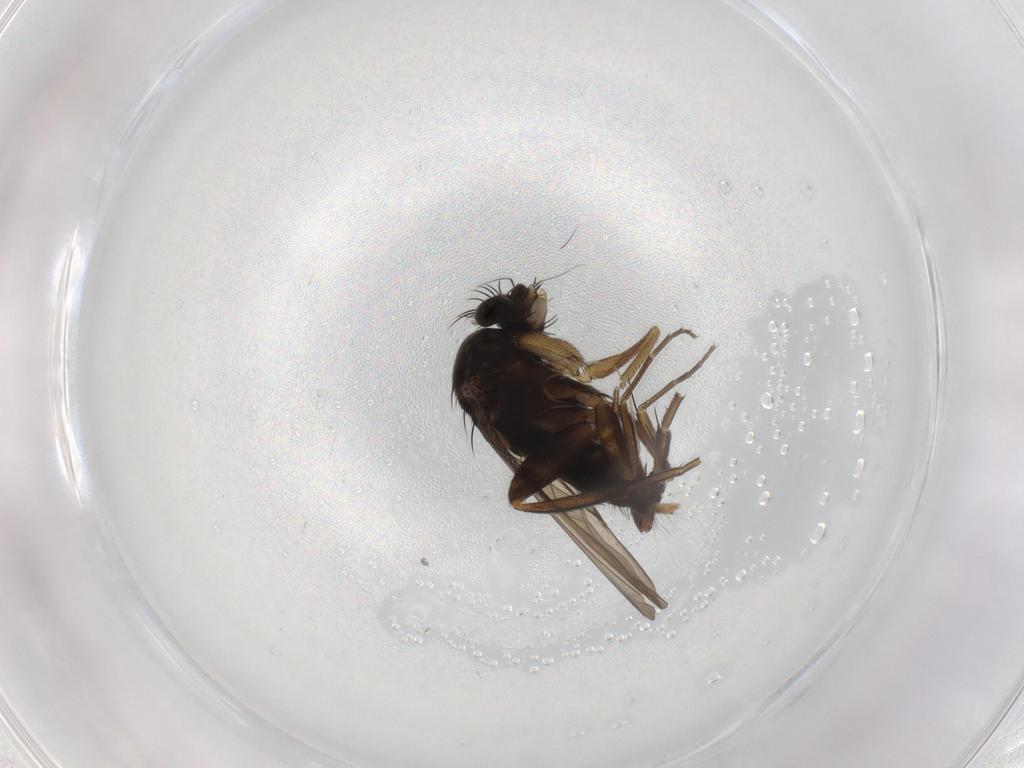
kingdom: Animalia
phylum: Arthropoda
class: Insecta
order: Diptera
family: Phoridae
